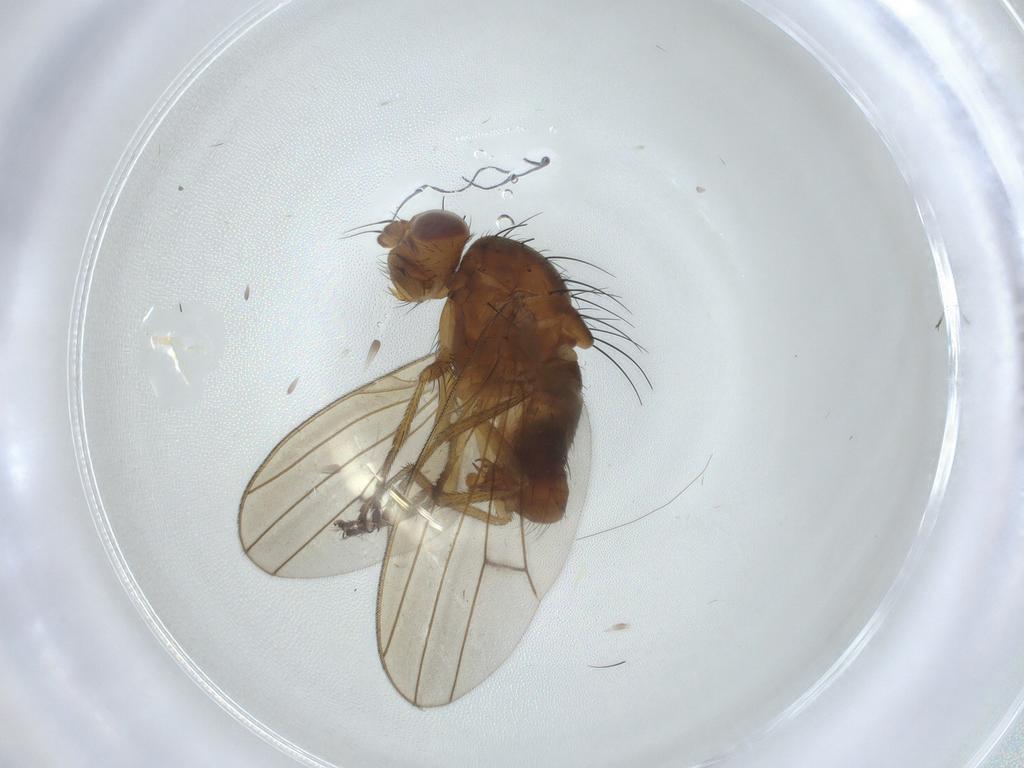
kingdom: Animalia
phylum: Arthropoda
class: Insecta
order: Diptera
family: Lauxaniidae
